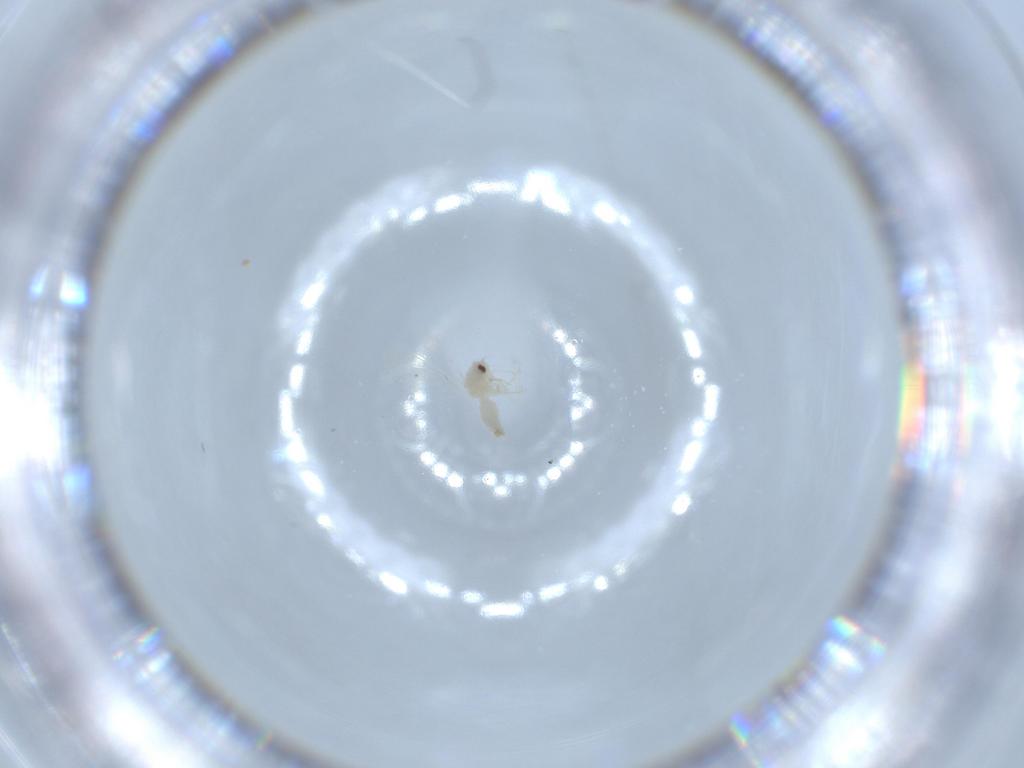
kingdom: Animalia
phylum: Arthropoda
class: Insecta
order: Hemiptera
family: Aleyrodidae
